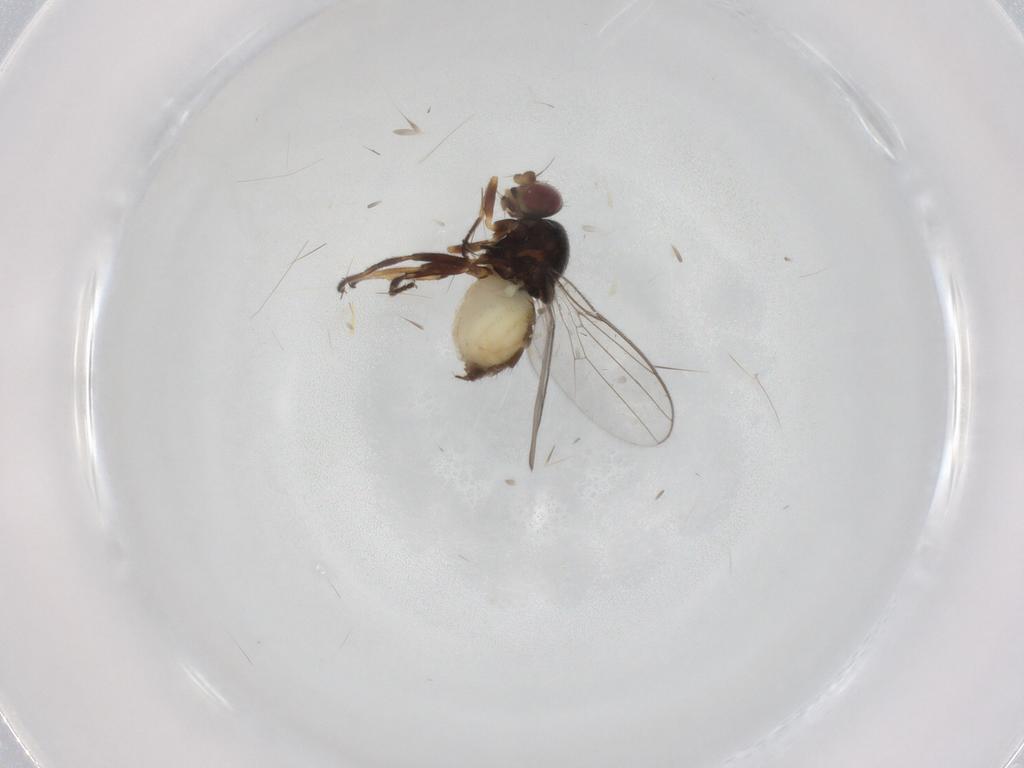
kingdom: Animalia
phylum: Arthropoda
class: Insecta
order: Diptera
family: Chloropidae
